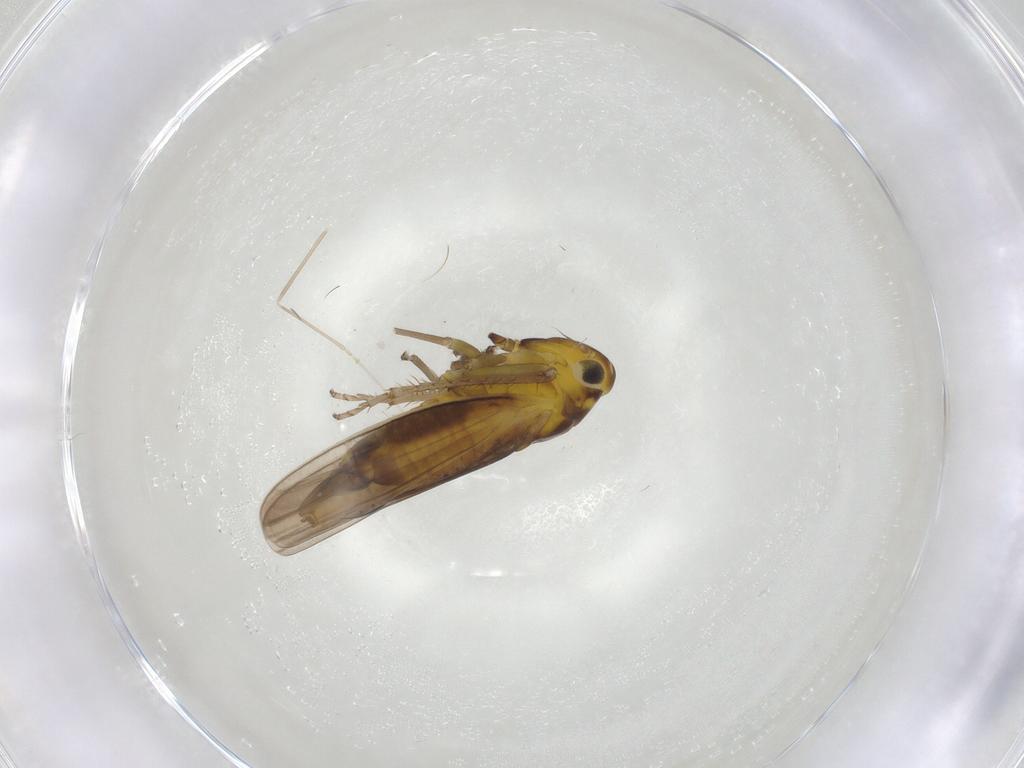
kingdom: Animalia
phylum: Arthropoda
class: Insecta
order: Hemiptera
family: Cicadellidae
